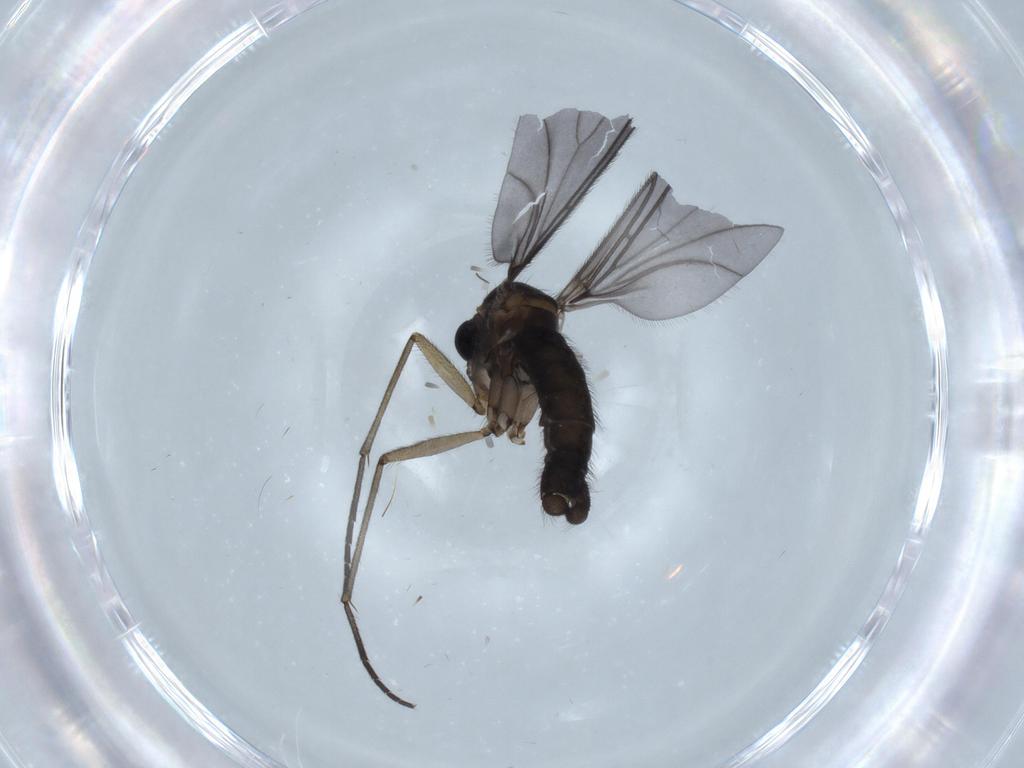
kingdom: Animalia
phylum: Arthropoda
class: Insecta
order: Diptera
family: Sciaridae
